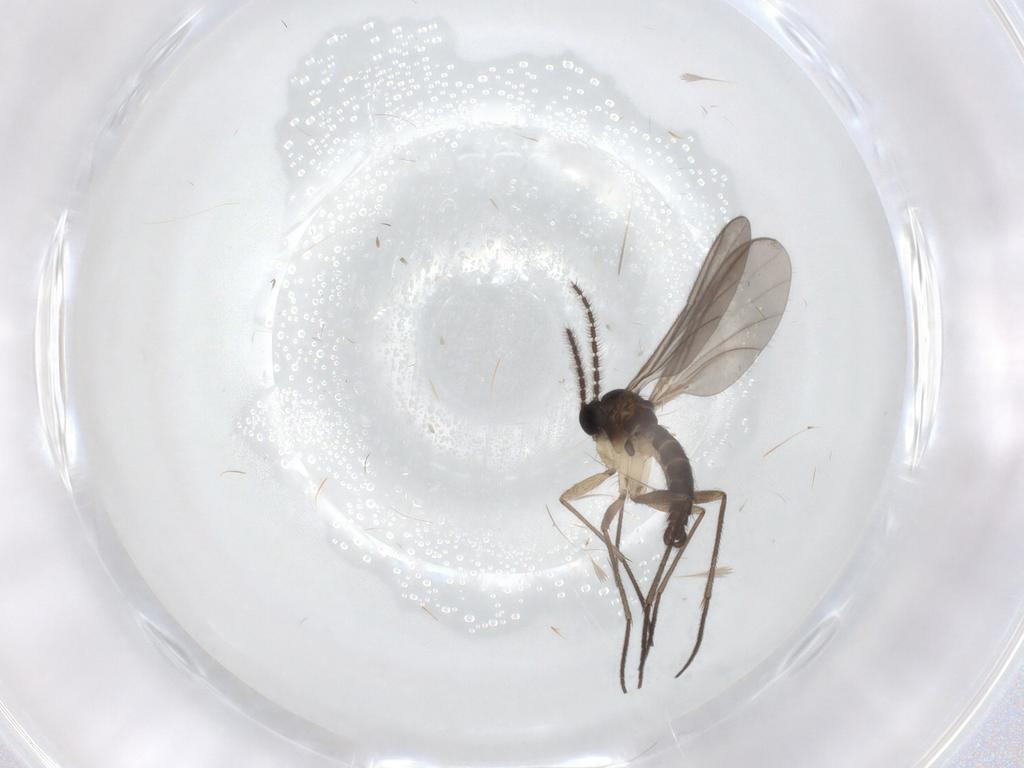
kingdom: Animalia
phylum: Arthropoda
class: Insecta
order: Diptera
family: Sciaridae
